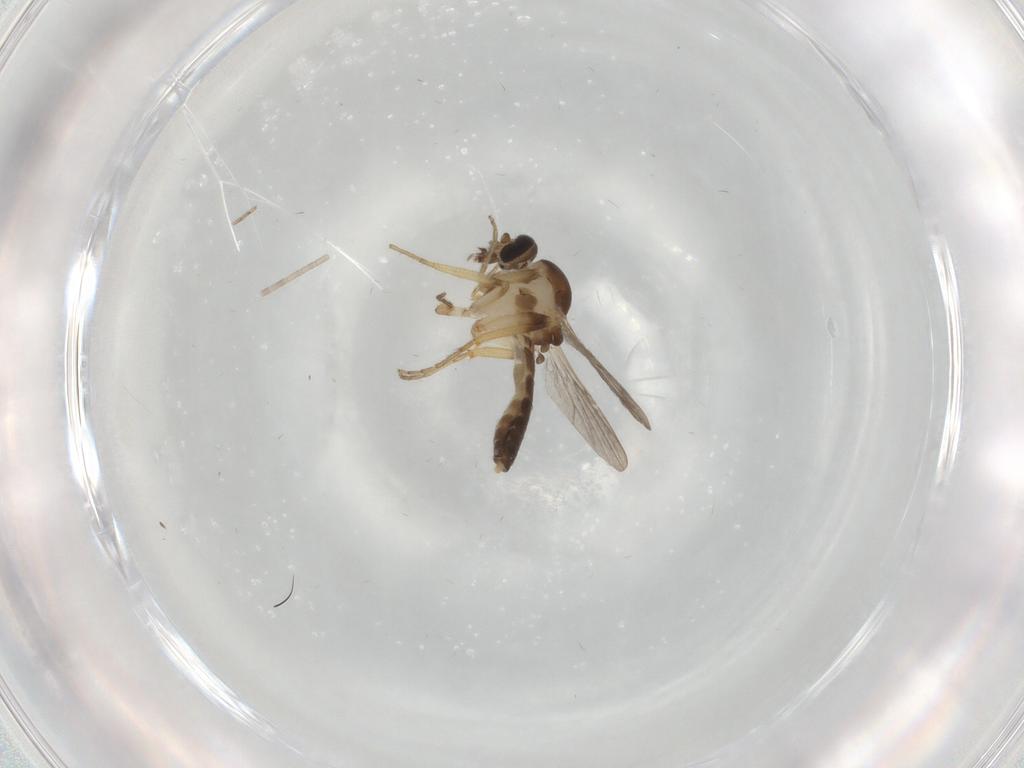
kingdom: Animalia
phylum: Arthropoda
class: Insecta
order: Diptera
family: Ceratopogonidae
